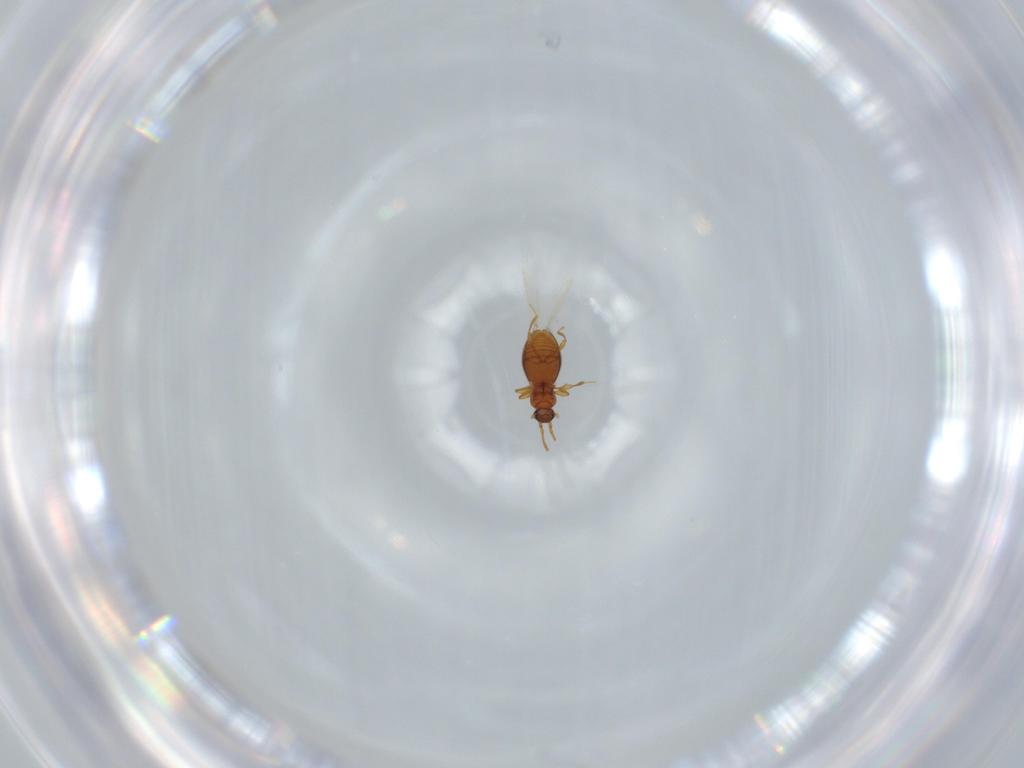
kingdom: Animalia
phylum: Arthropoda
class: Insecta
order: Coleoptera
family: Staphylinidae
